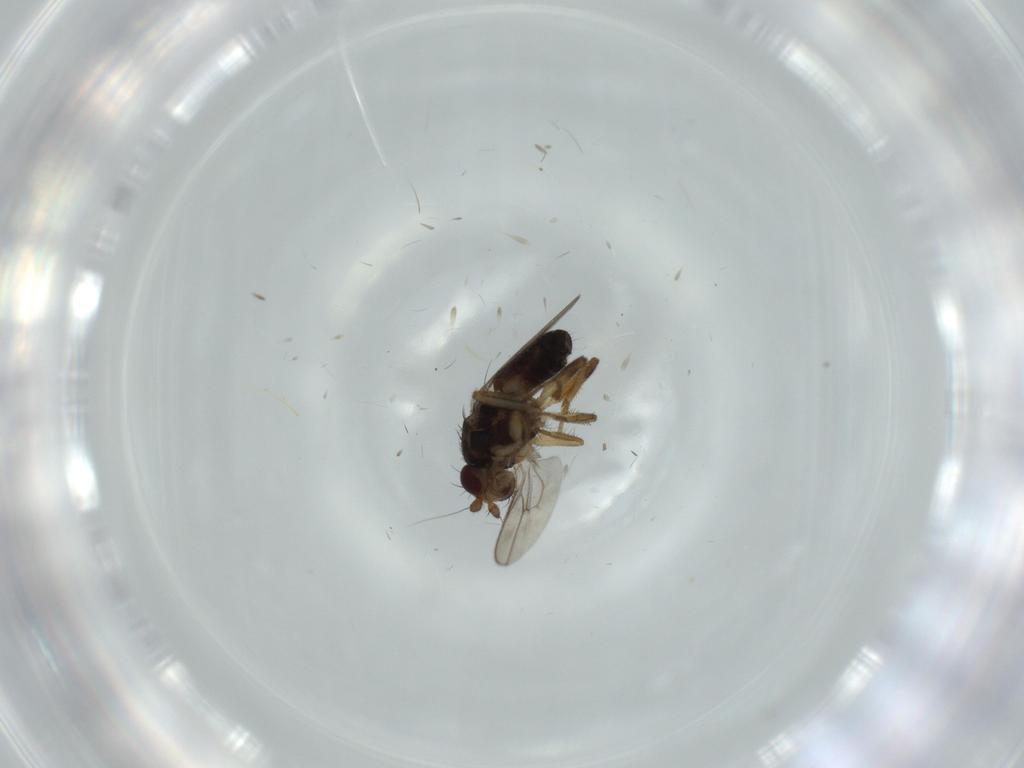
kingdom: Animalia
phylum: Arthropoda
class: Insecta
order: Diptera
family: Sphaeroceridae
